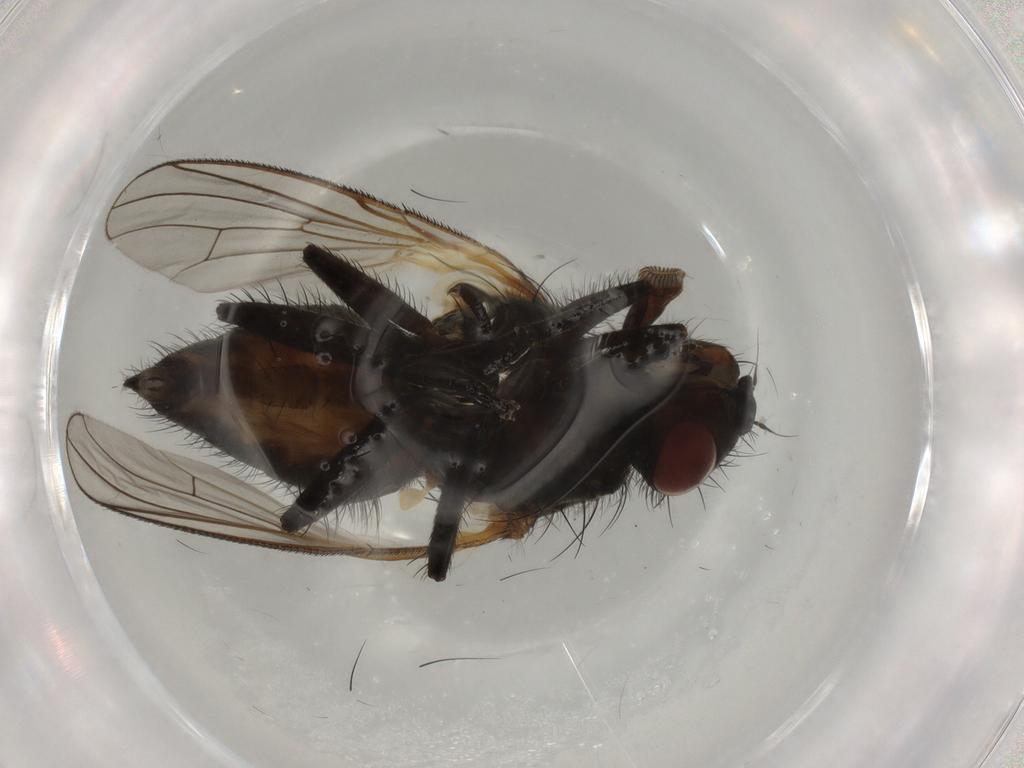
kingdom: Animalia
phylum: Arthropoda
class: Insecta
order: Diptera
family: Anthomyiidae
